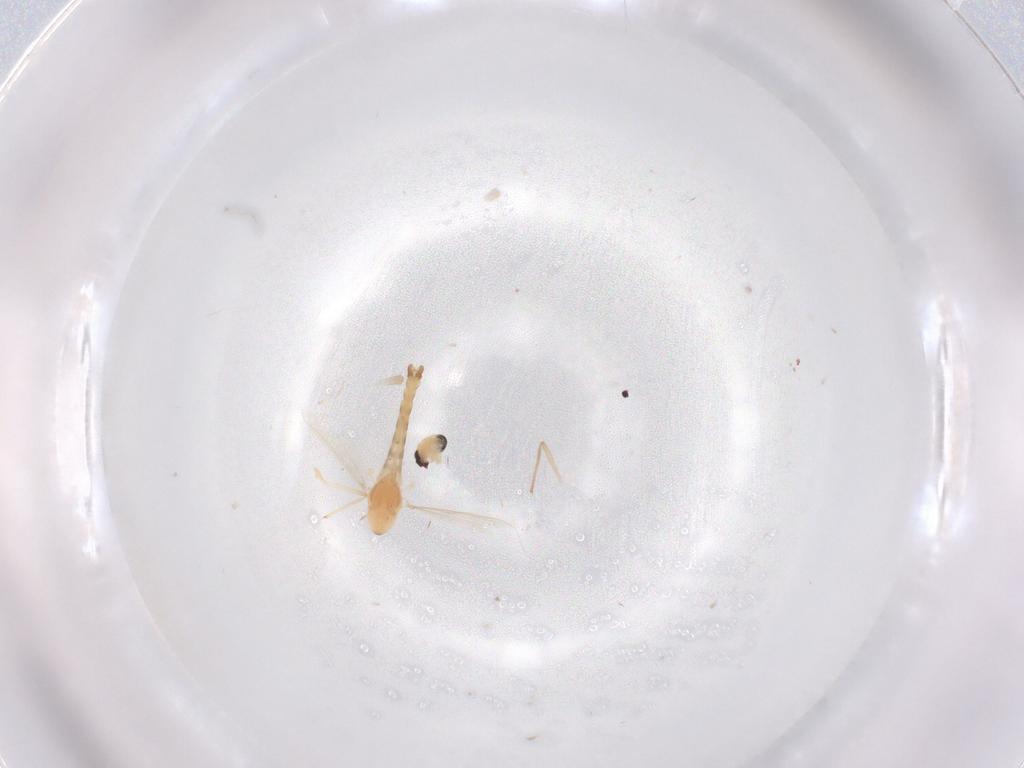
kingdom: Animalia
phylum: Arthropoda
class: Insecta
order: Diptera
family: Chironomidae
